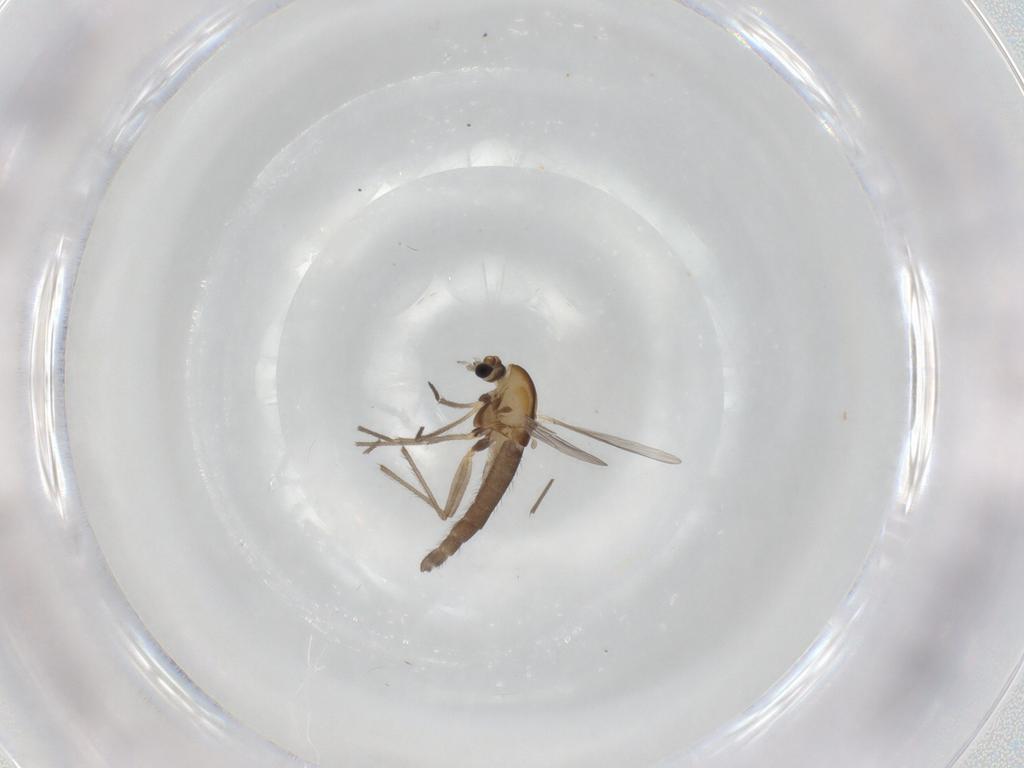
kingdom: Animalia
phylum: Arthropoda
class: Insecta
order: Diptera
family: Chironomidae
